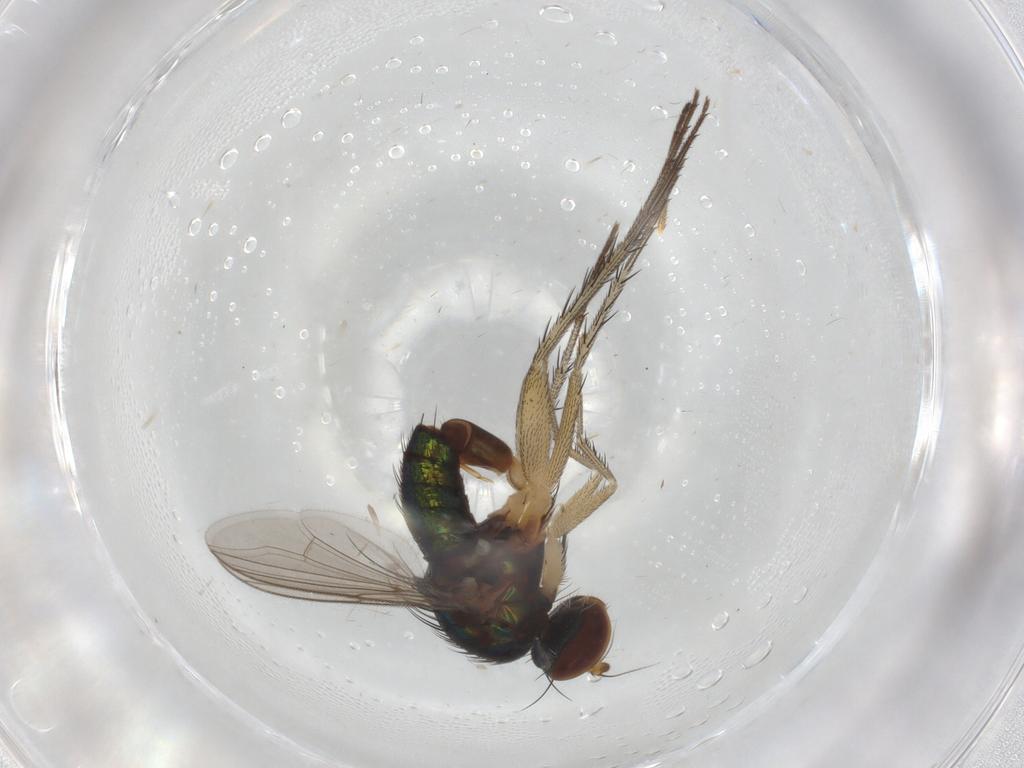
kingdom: Animalia
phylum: Arthropoda
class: Insecta
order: Diptera
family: Dolichopodidae
